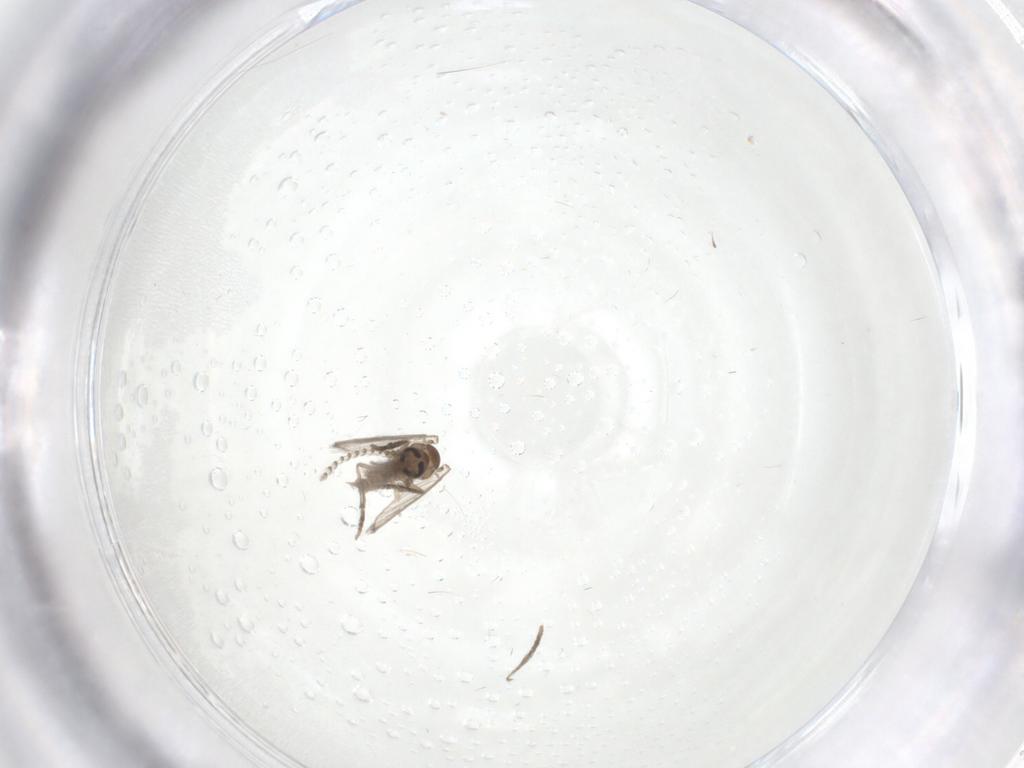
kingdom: Animalia
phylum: Arthropoda
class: Insecta
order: Diptera
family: Psychodidae
